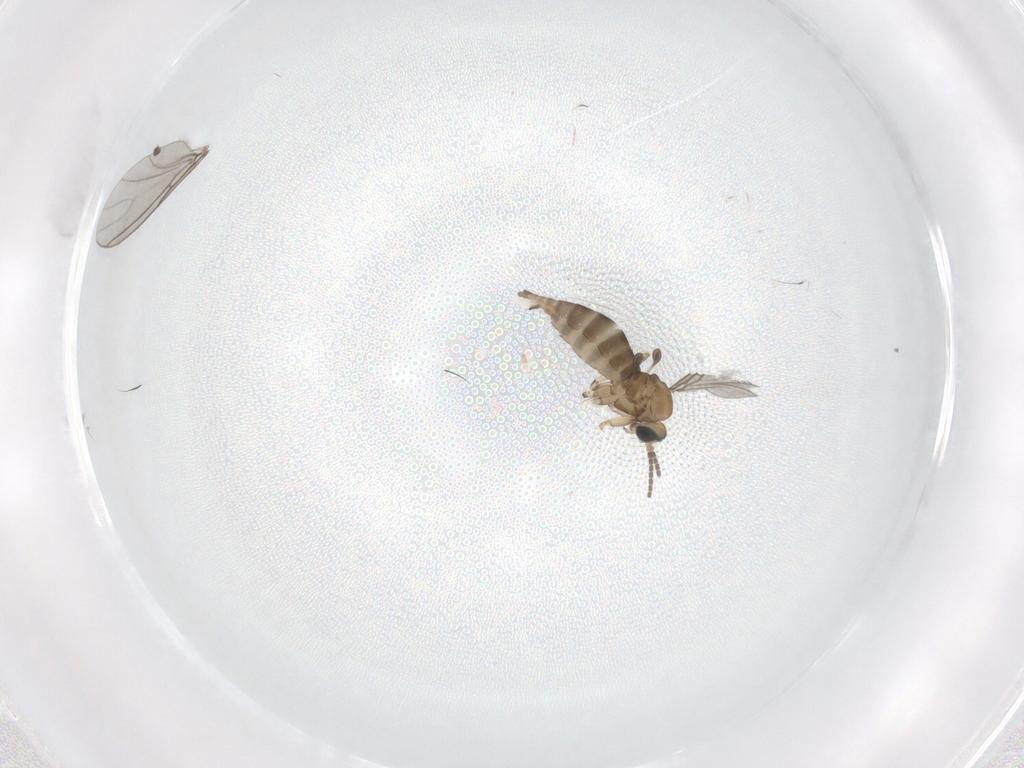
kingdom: Animalia
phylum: Arthropoda
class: Insecta
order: Diptera
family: Sciaridae
